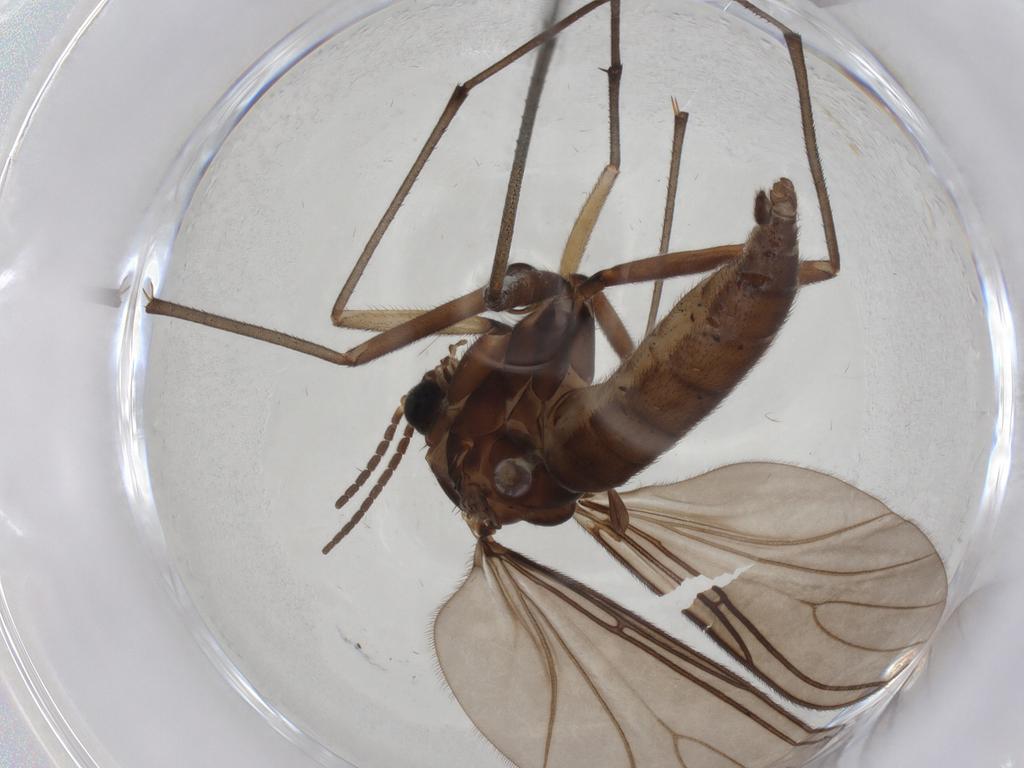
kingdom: Animalia
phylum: Arthropoda
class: Insecta
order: Diptera
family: Sciaridae
